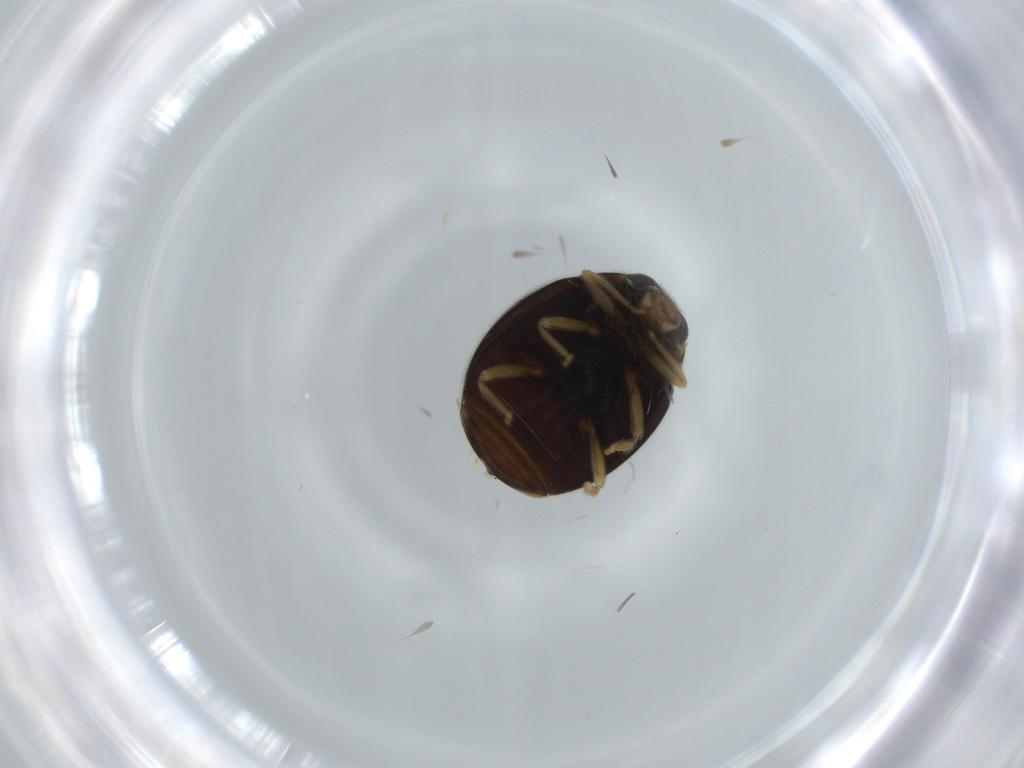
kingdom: Animalia
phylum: Arthropoda
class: Insecta
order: Coleoptera
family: Coccinellidae
